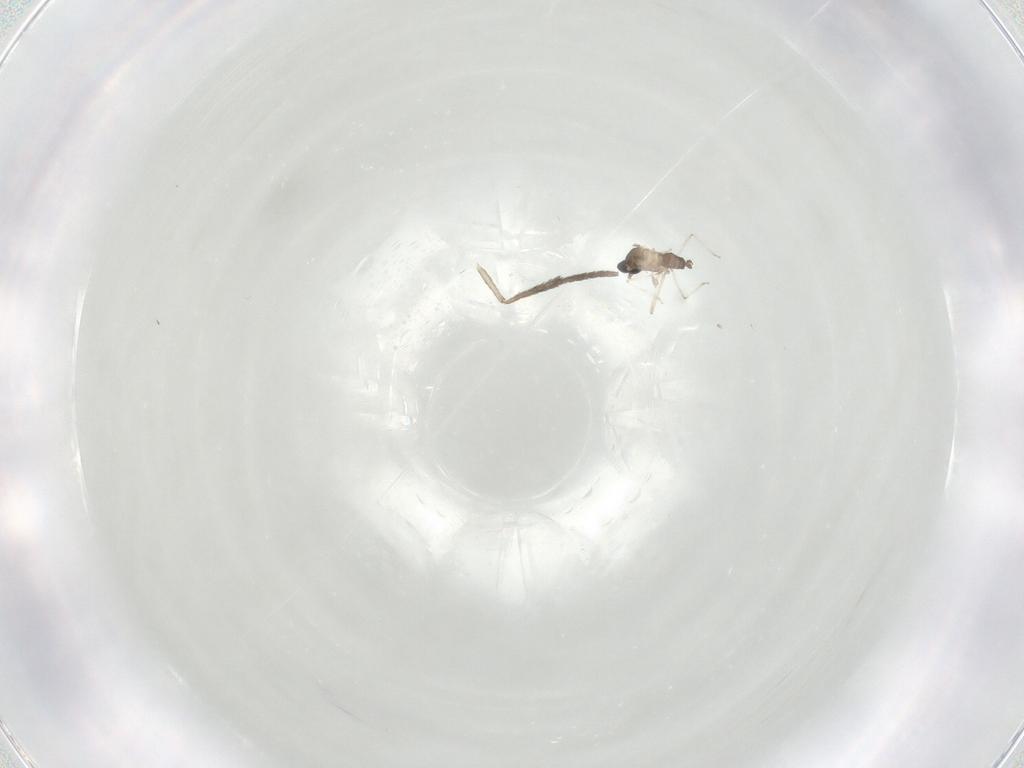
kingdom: Animalia
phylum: Arthropoda
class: Insecta
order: Diptera
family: Cecidomyiidae
